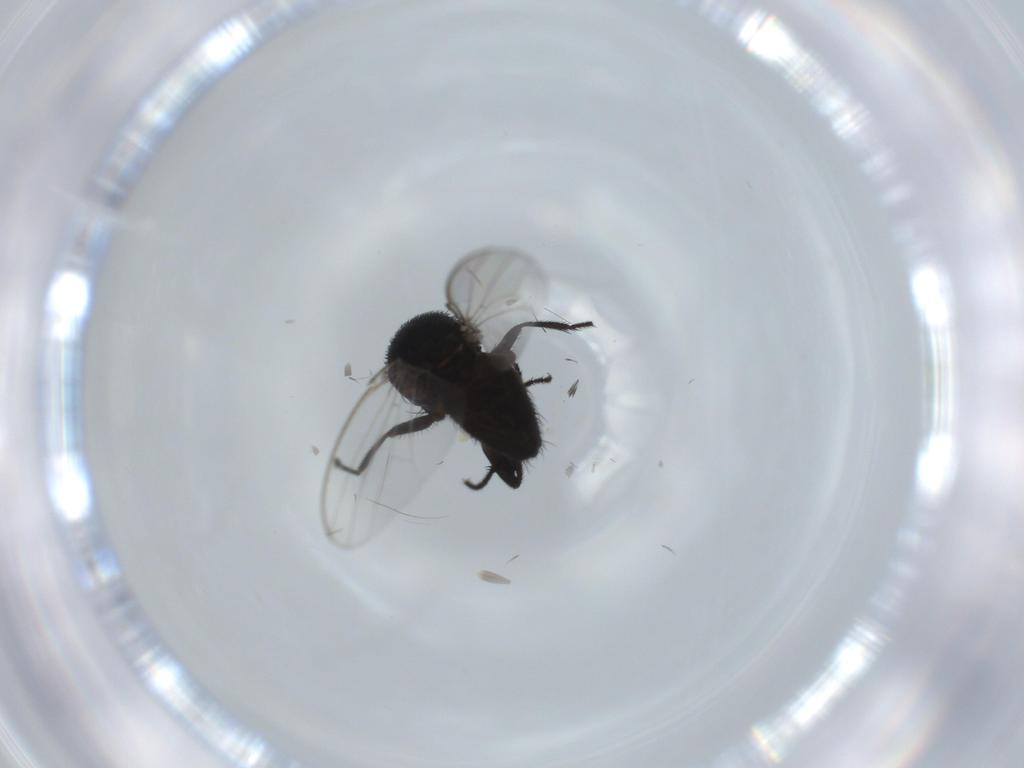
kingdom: Animalia
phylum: Arthropoda
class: Insecta
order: Diptera
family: Milichiidae
